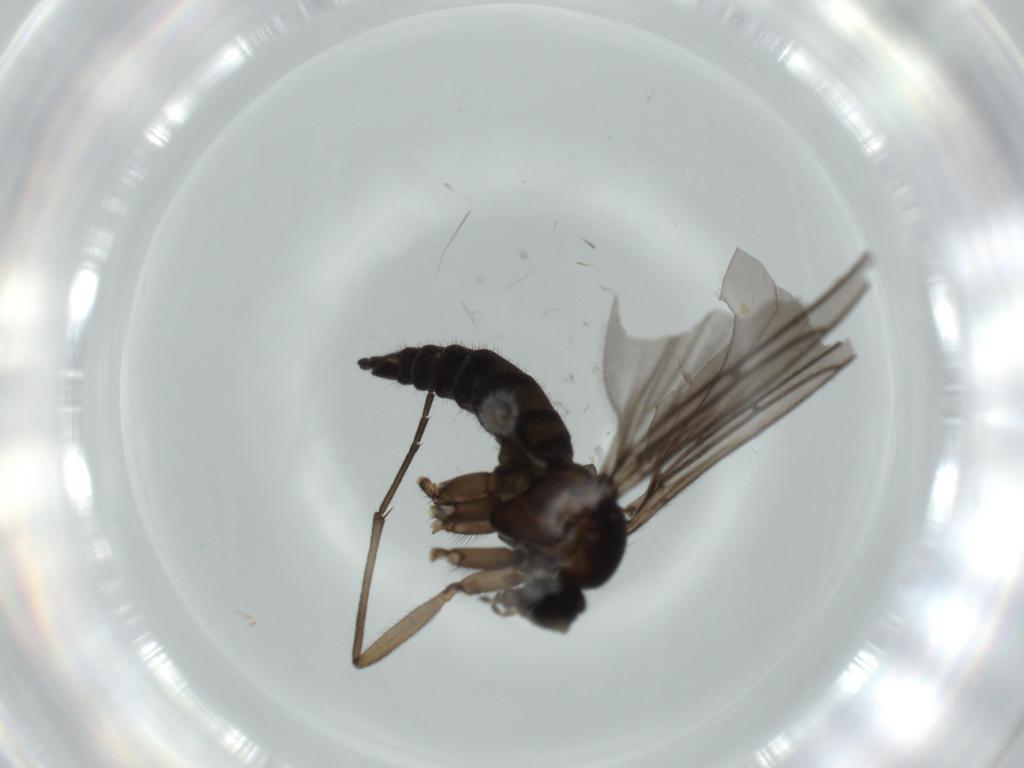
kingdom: Animalia
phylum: Arthropoda
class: Insecta
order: Diptera
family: Sciaridae
